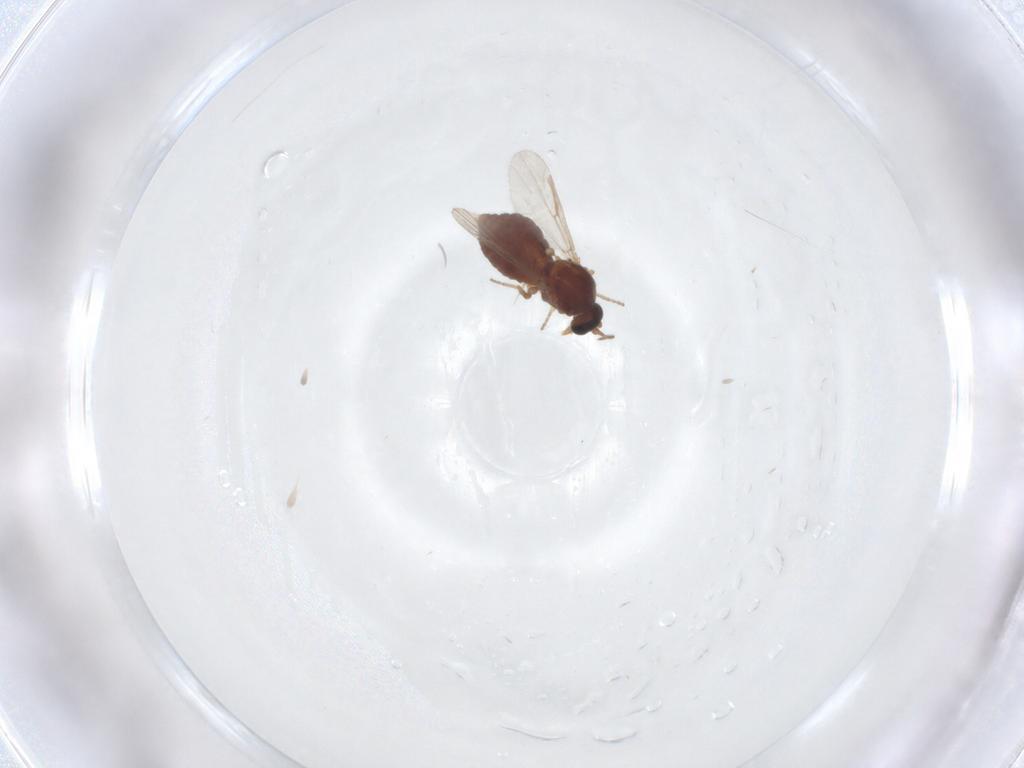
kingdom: Animalia
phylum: Arthropoda
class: Insecta
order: Diptera
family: Ceratopogonidae
